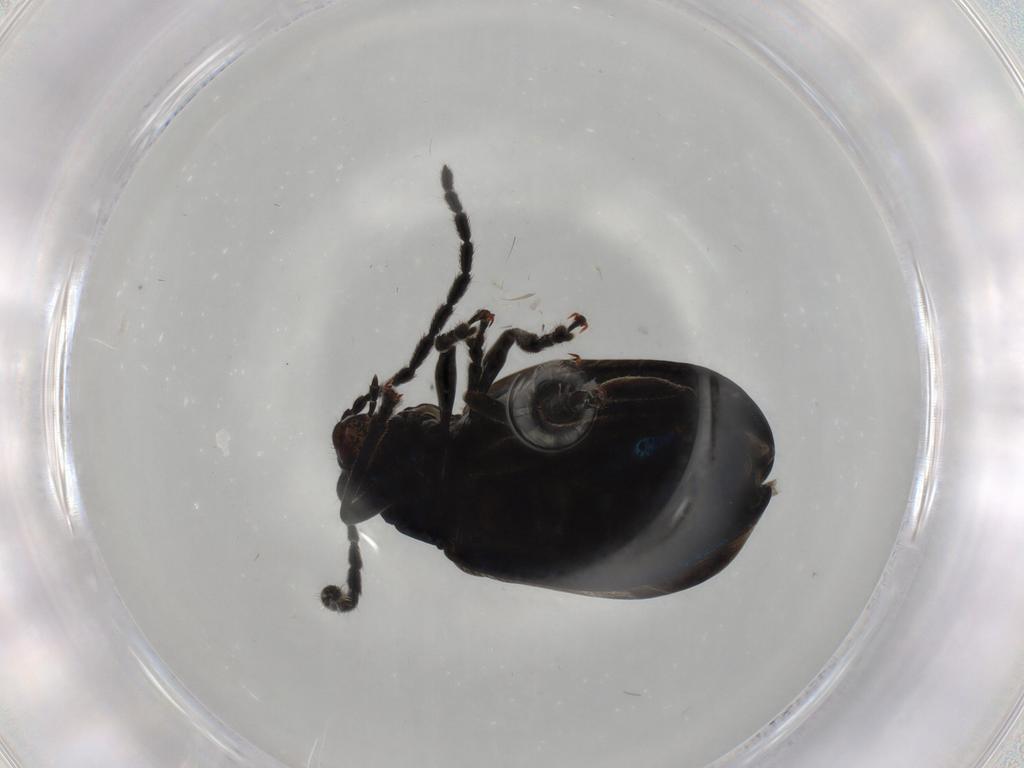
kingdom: Animalia
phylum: Arthropoda
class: Insecta
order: Coleoptera
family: Chrysomelidae
